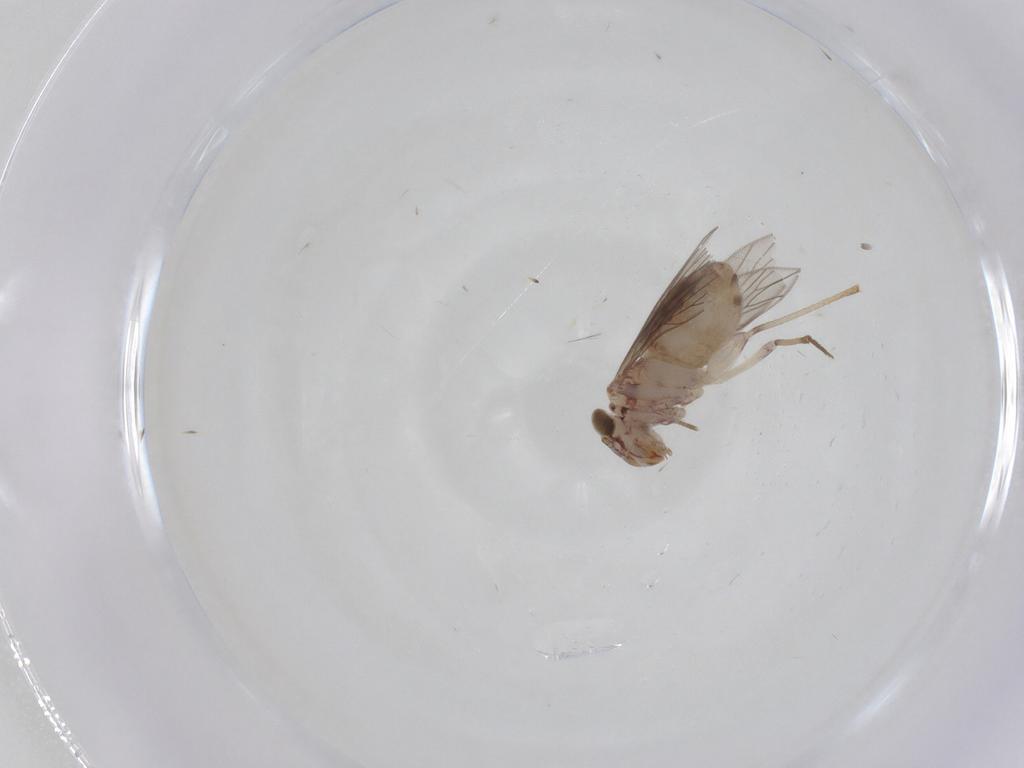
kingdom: Animalia
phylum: Arthropoda
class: Insecta
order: Psocodea
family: Lepidopsocidae
